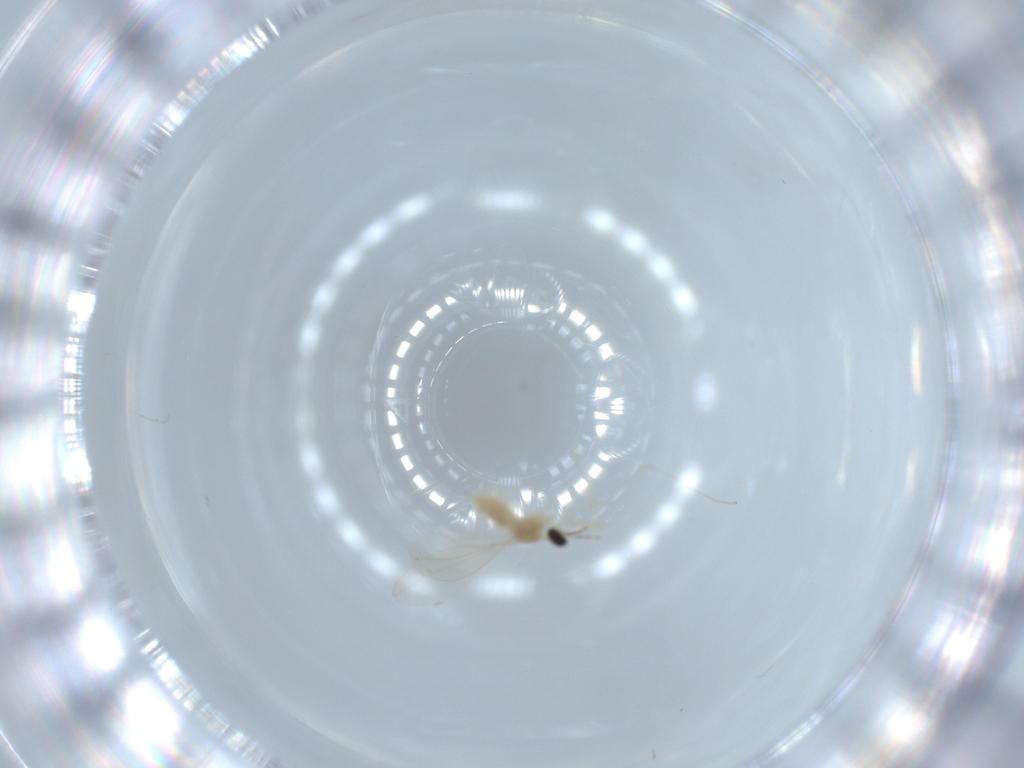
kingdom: Animalia
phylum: Arthropoda
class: Insecta
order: Diptera
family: Cecidomyiidae
